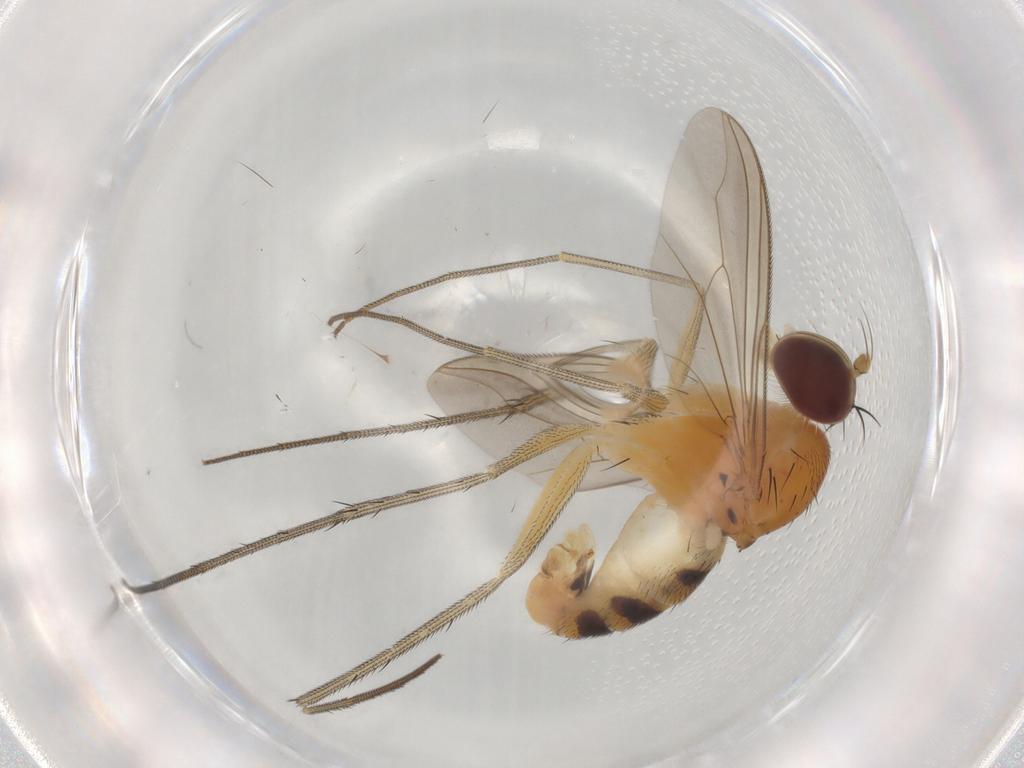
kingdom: Animalia
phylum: Arthropoda
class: Insecta
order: Diptera
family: Dolichopodidae
